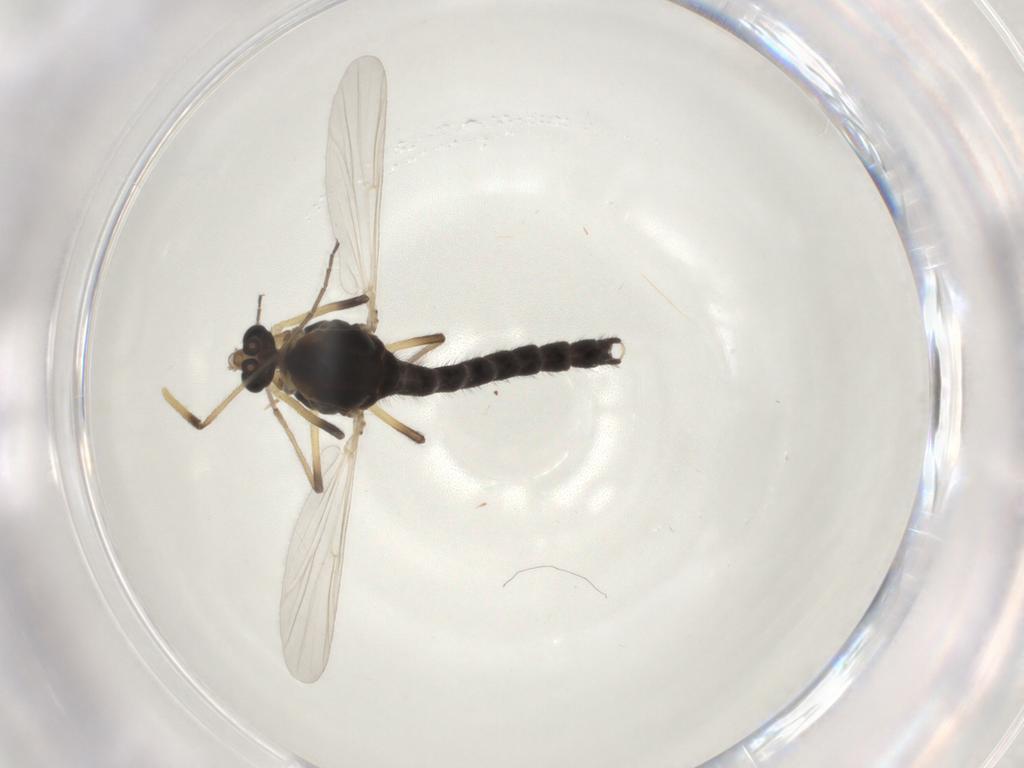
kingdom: Animalia
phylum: Arthropoda
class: Insecta
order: Diptera
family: Chironomidae
